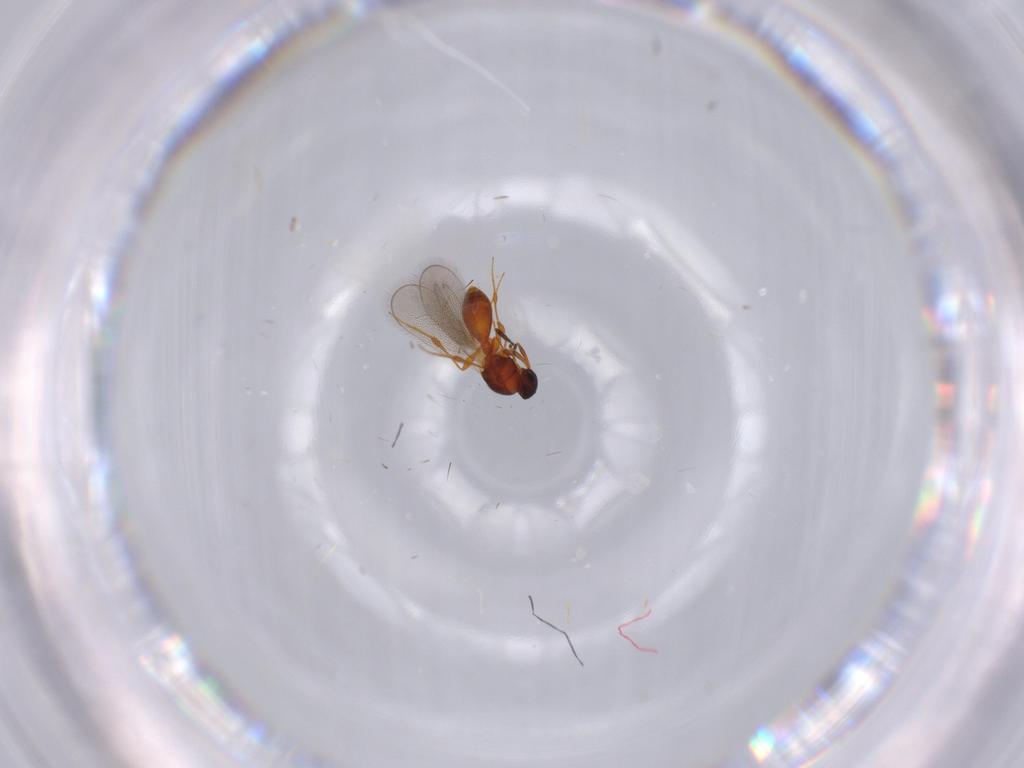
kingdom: Animalia
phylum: Arthropoda
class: Insecta
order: Hymenoptera
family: Platygastridae
